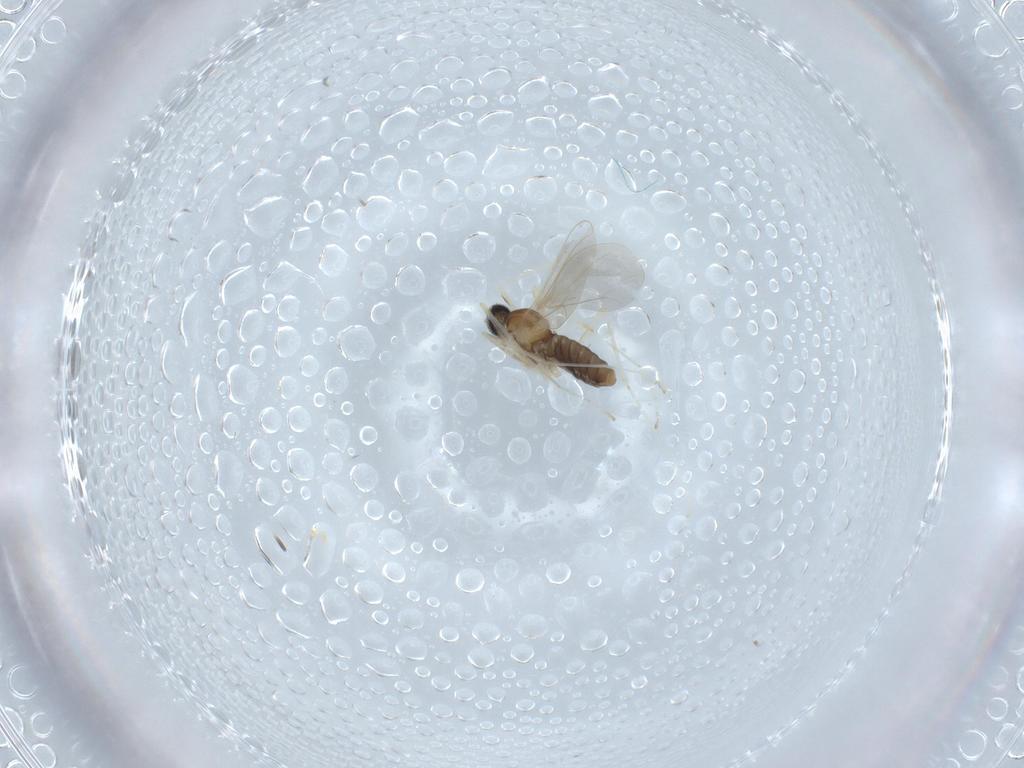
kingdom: Animalia
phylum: Arthropoda
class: Insecta
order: Diptera
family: Cecidomyiidae
